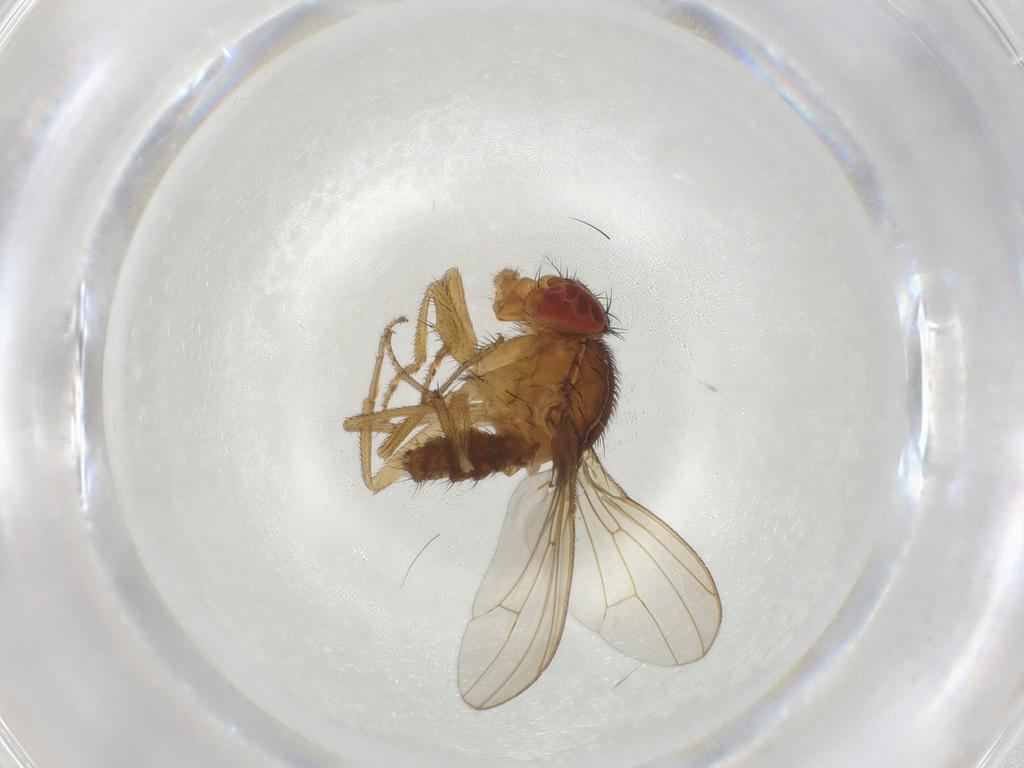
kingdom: Animalia
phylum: Arthropoda
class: Insecta
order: Diptera
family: Drosophilidae
